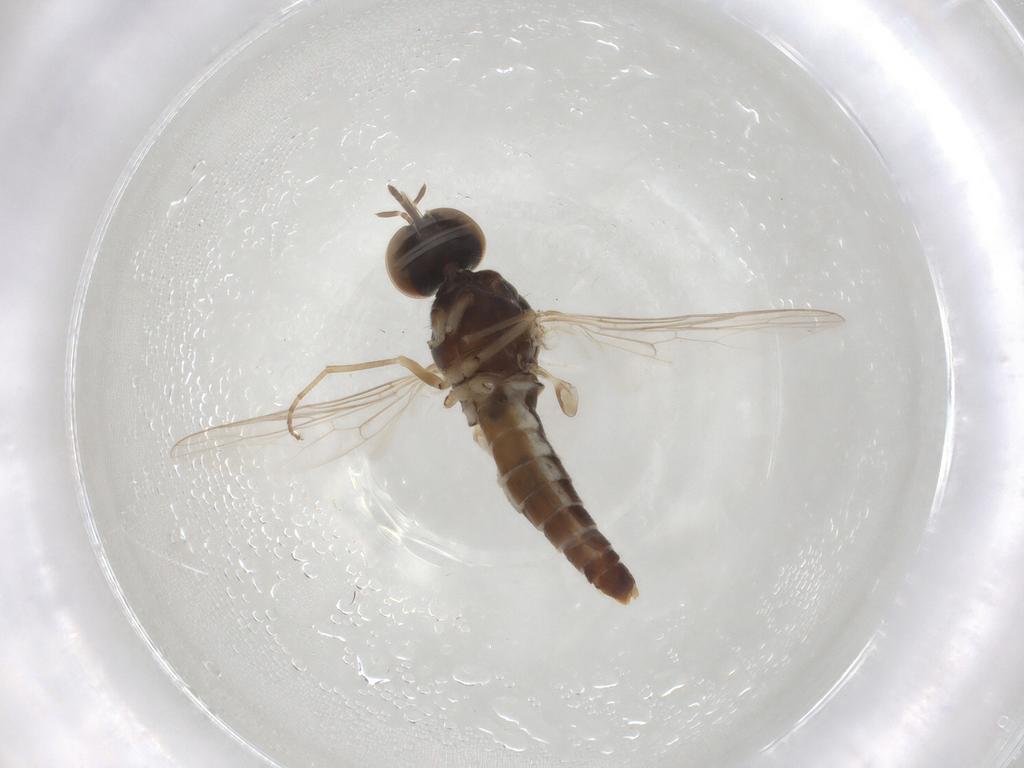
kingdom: Animalia
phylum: Arthropoda
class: Insecta
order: Diptera
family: Scenopinidae
